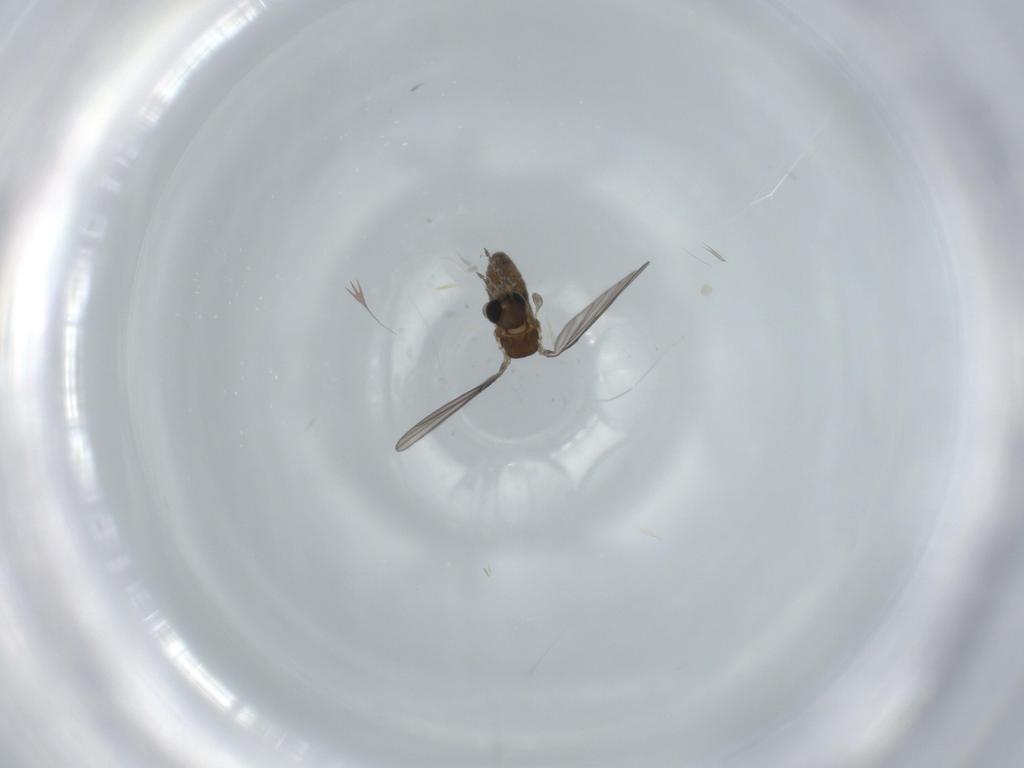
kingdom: Animalia
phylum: Arthropoda
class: Insecta
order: Diptera
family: Psychodidae
